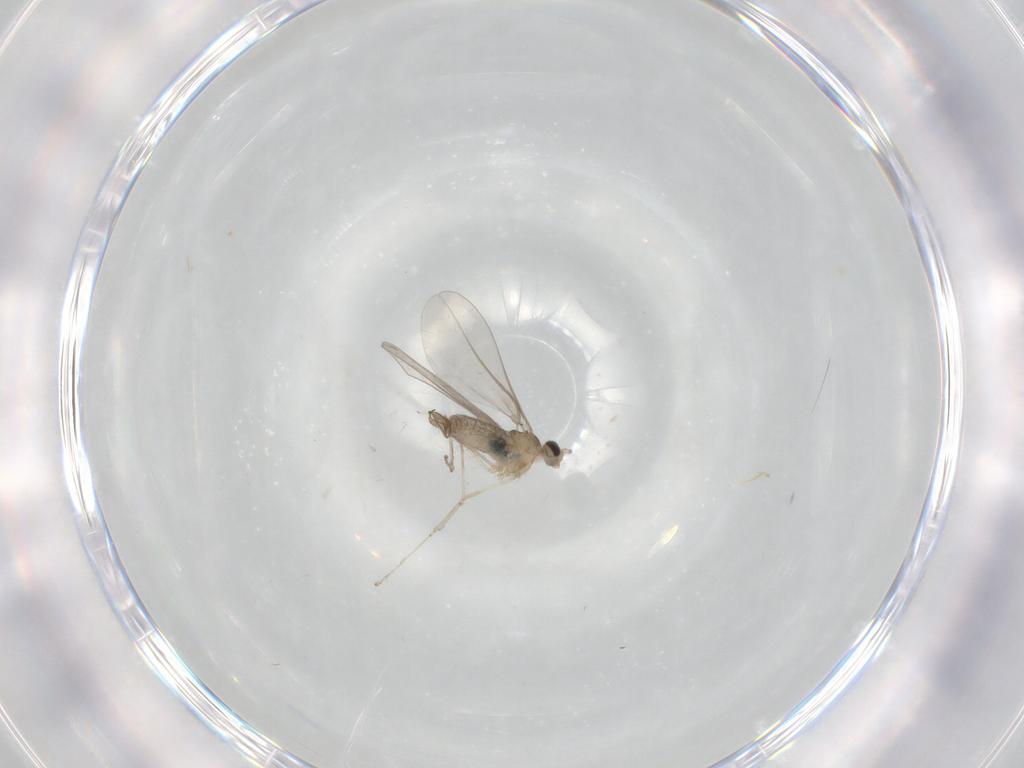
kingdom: Animalia
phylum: Arthropoda
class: Insecta
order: Diptera
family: Cecidomyiidae
